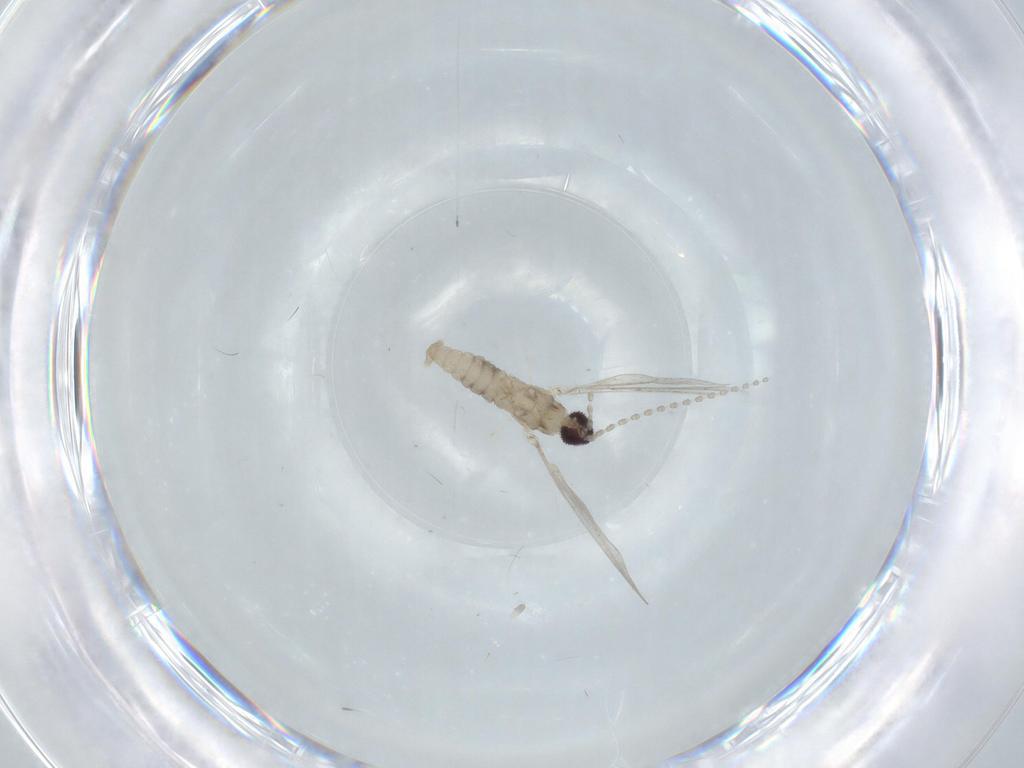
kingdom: Animalia
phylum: Arthropoda
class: Insecta
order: Diptera
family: Cecidomyiidae
